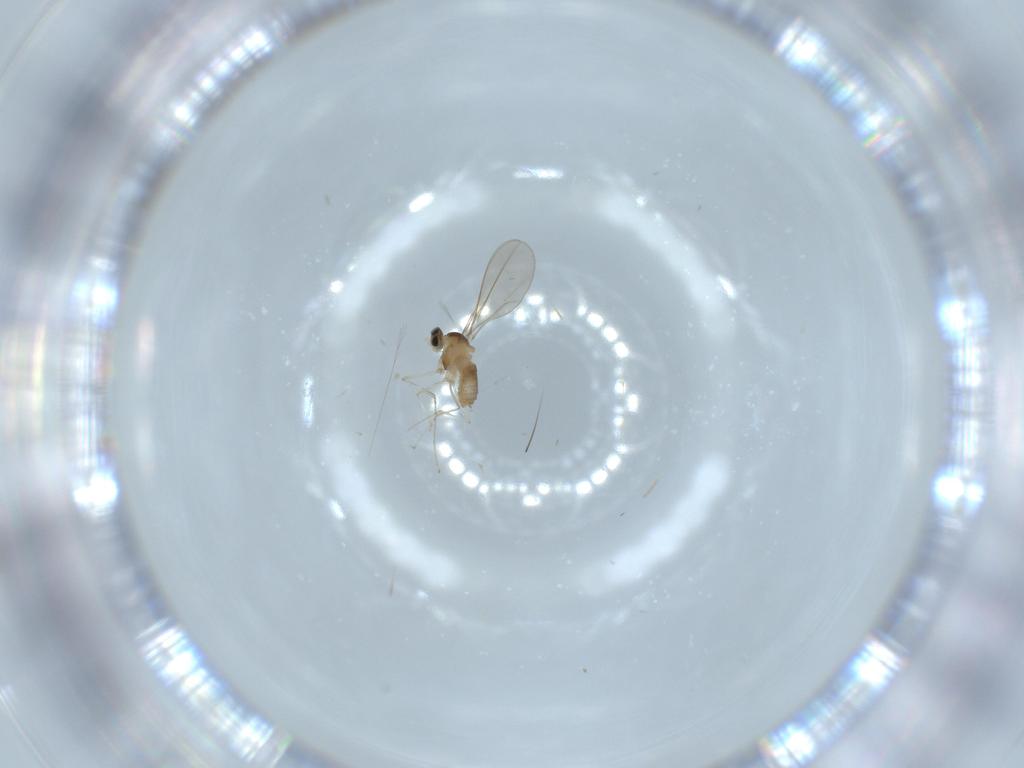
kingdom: Animalia
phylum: Arthropoda
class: Insecta
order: Diptera
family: Cecidomyiidae
